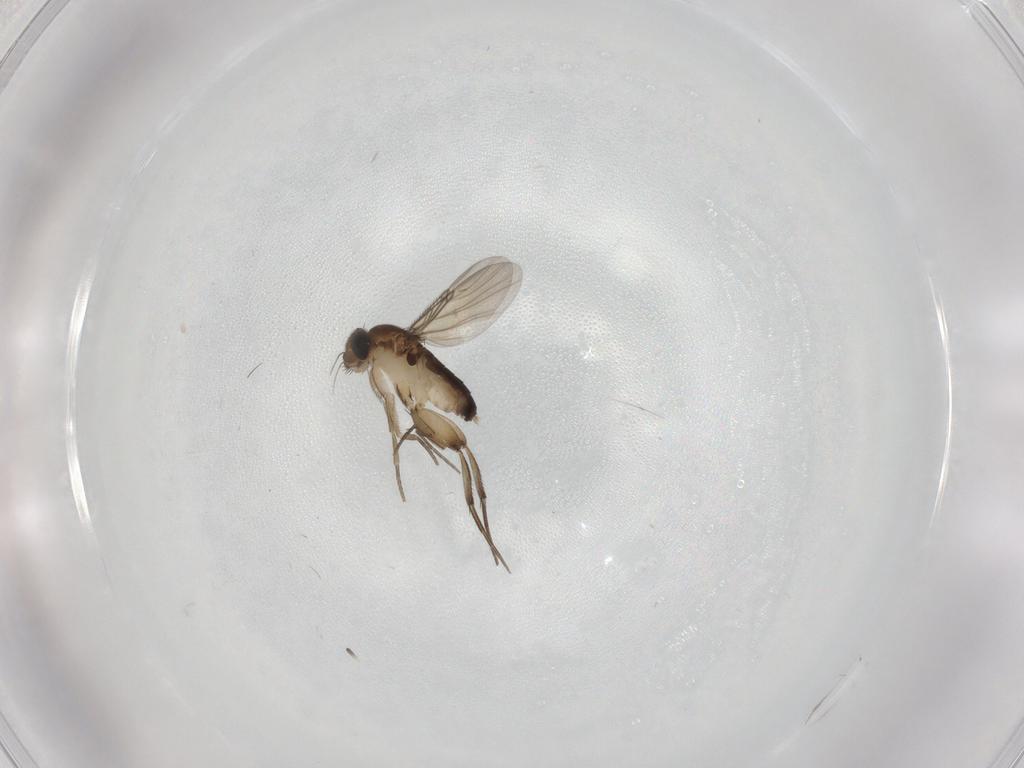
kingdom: Animalia
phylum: Arthropoda
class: Insecta
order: Diptera
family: Phoridae
